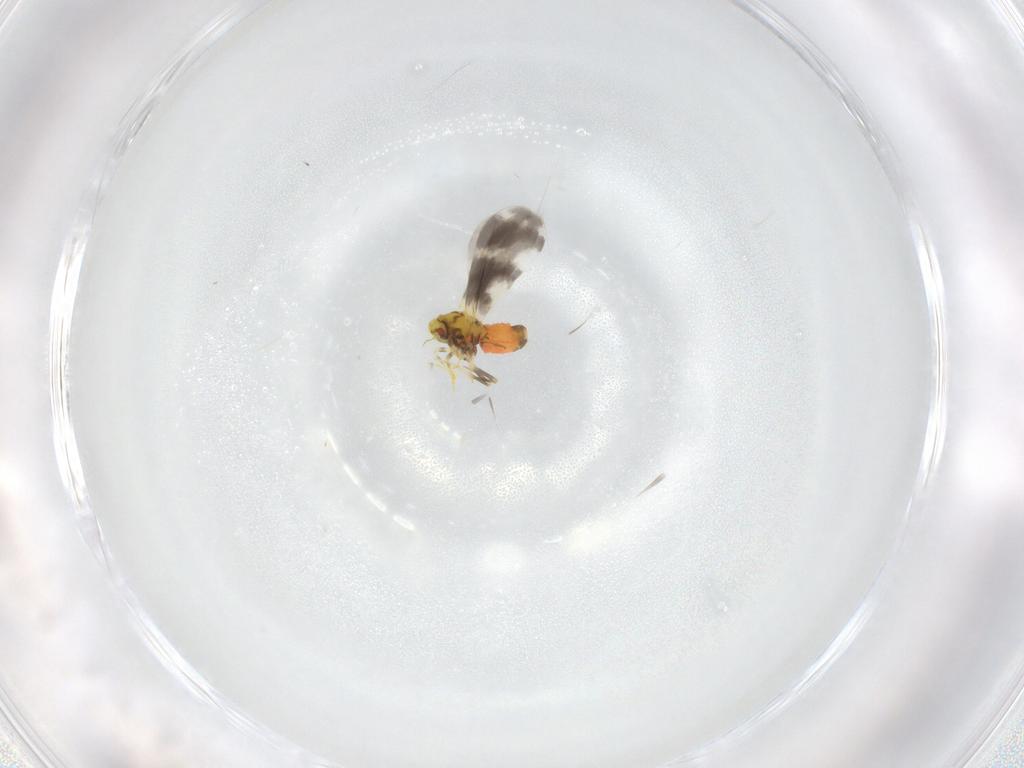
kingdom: Animalia
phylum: Arthropoda
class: Insecta
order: Hemiptera
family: Aleyrodidae
